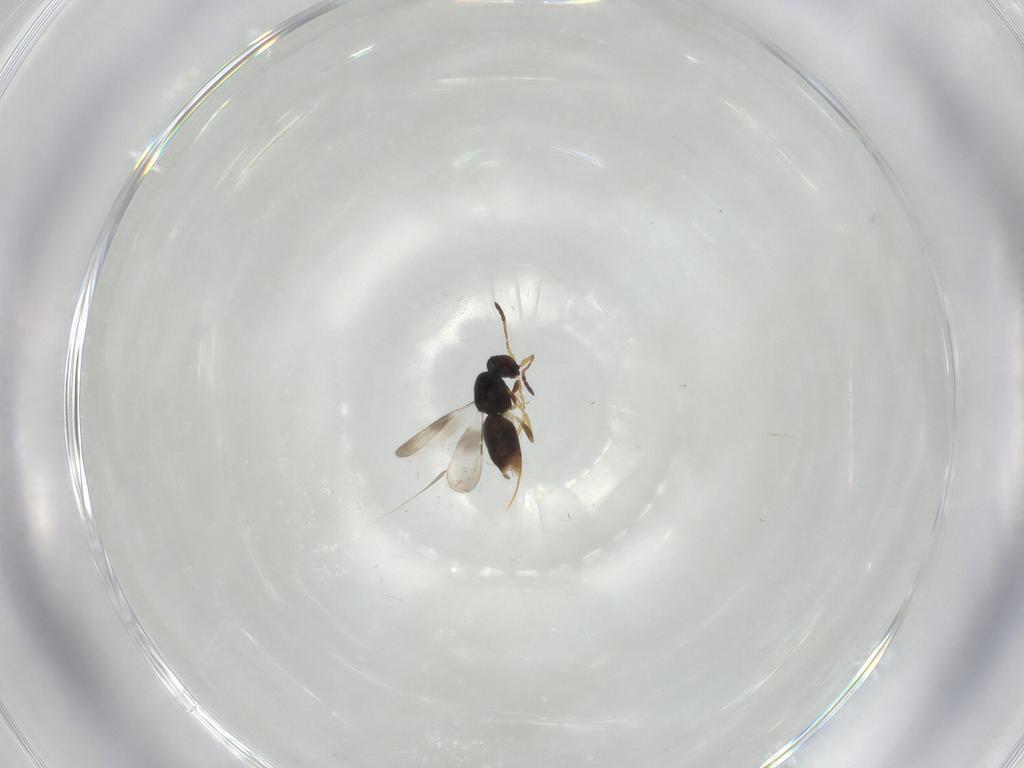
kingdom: Animalia
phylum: Arthropoda
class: Insecta
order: Hymenoptera
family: Ceraphronidae
